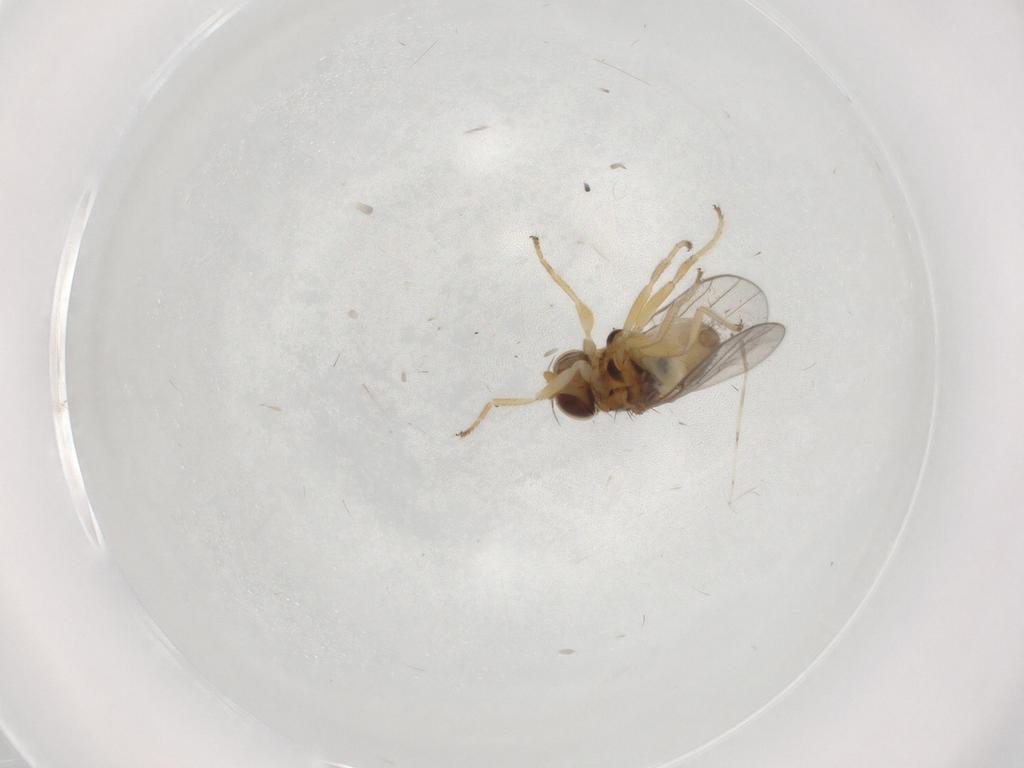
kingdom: Animalia
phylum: Arthropoda
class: Insecta
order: Diptera
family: Chloropidae
